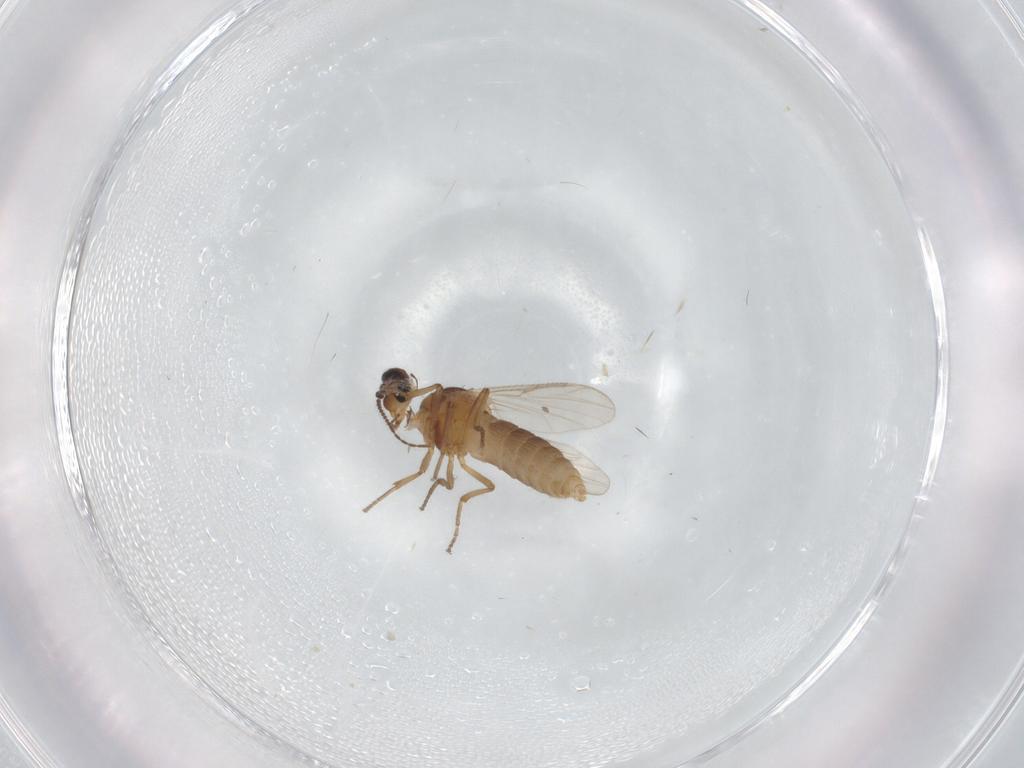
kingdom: Animalia
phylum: Arthropoda
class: Insecta
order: Diptera
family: Ceratopogonidae
